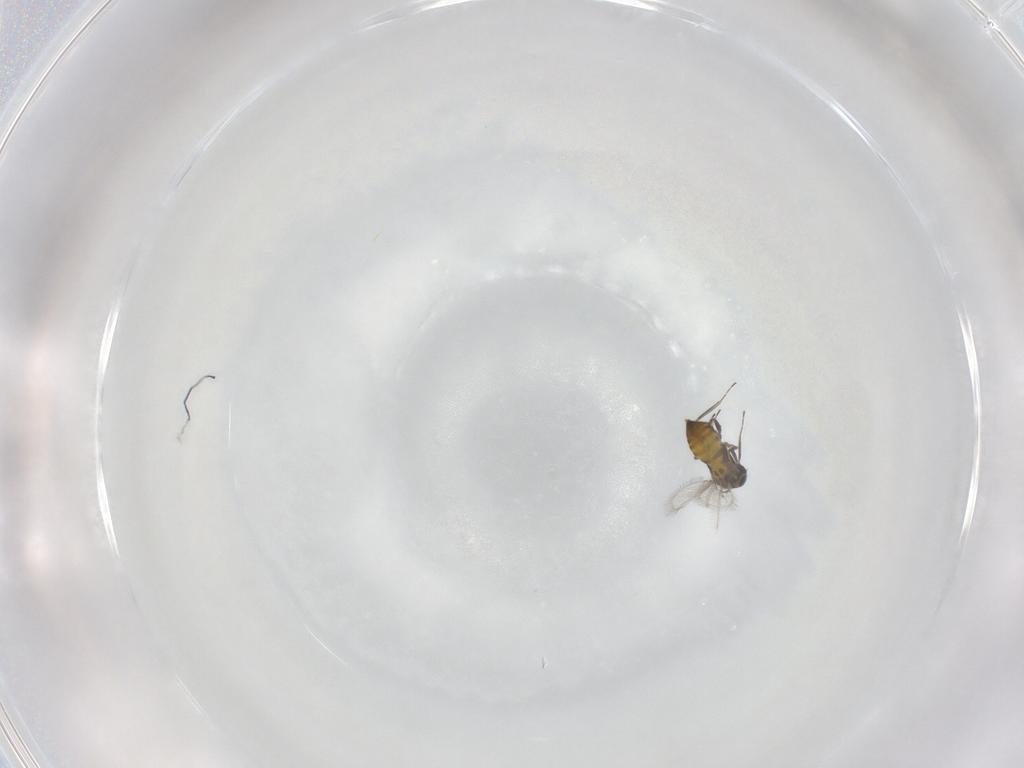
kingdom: Animalia
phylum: Arthropoda
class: Insecta
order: Hymenoptera
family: Trichogrammatidae
